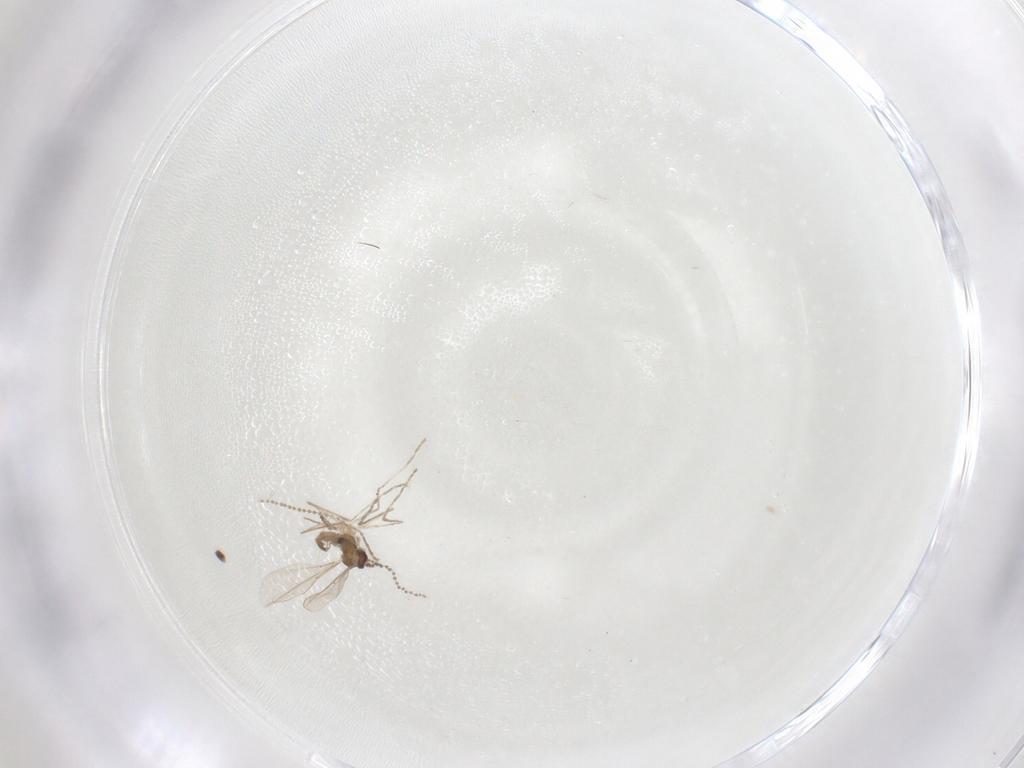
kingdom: Animalia
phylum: Arthropoda
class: Insecta
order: Diptera
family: Cecidomyiidae
